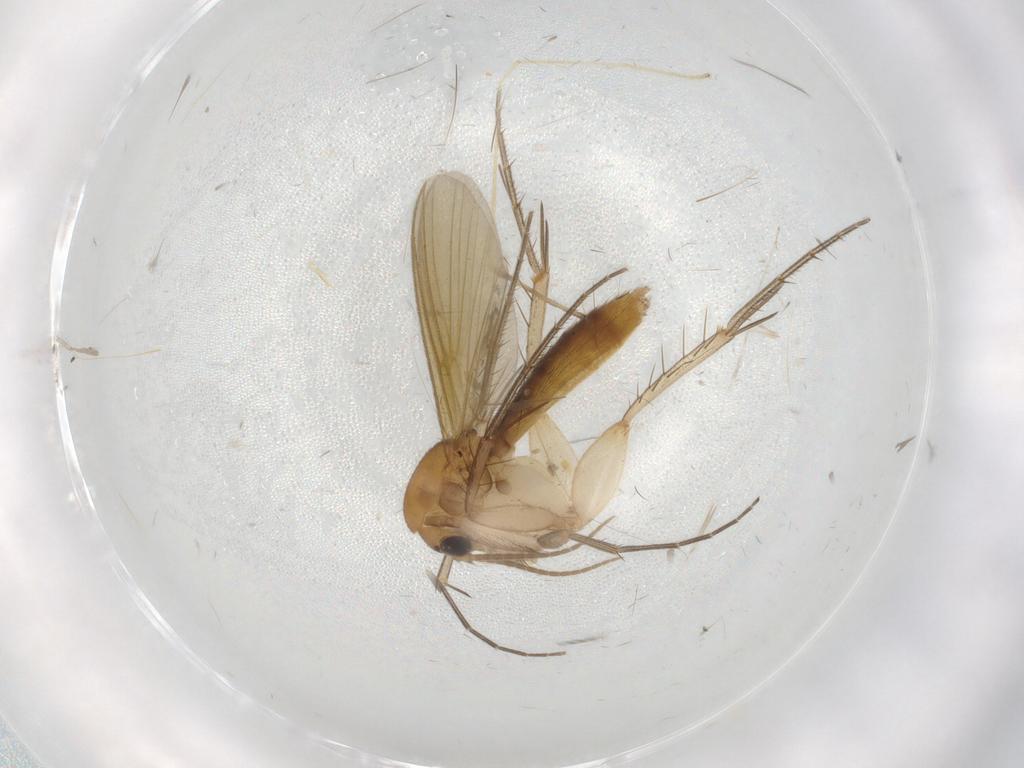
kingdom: Animalia
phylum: Arthropoda
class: Insecta
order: Diptera
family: Mycetophilidae
